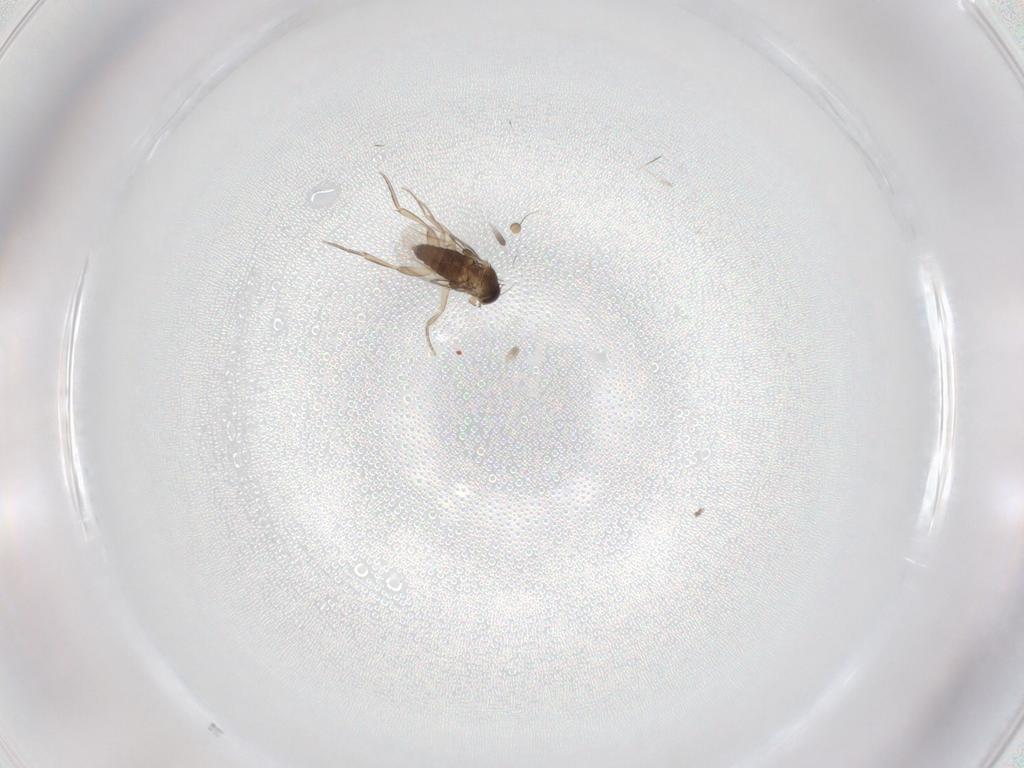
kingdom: Animalia
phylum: Arthropoda
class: Insecta
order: Diptera
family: Phoridae
